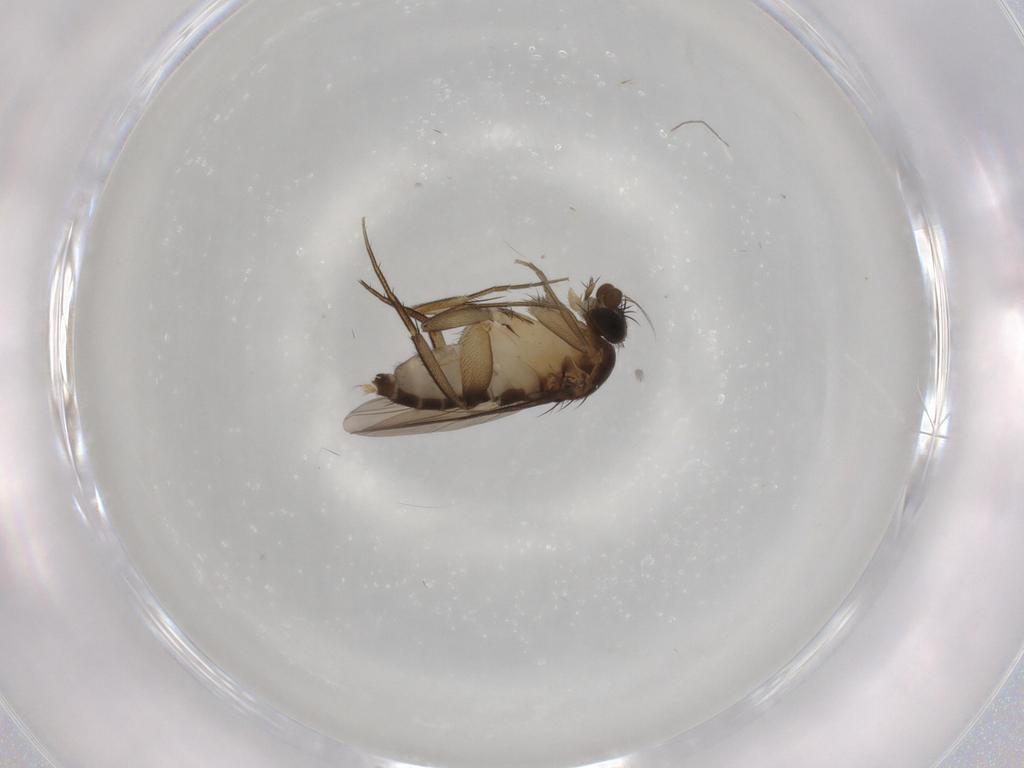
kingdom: Animalia
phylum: Arthropoda
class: Insecta
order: Diptera
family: Phoridae
